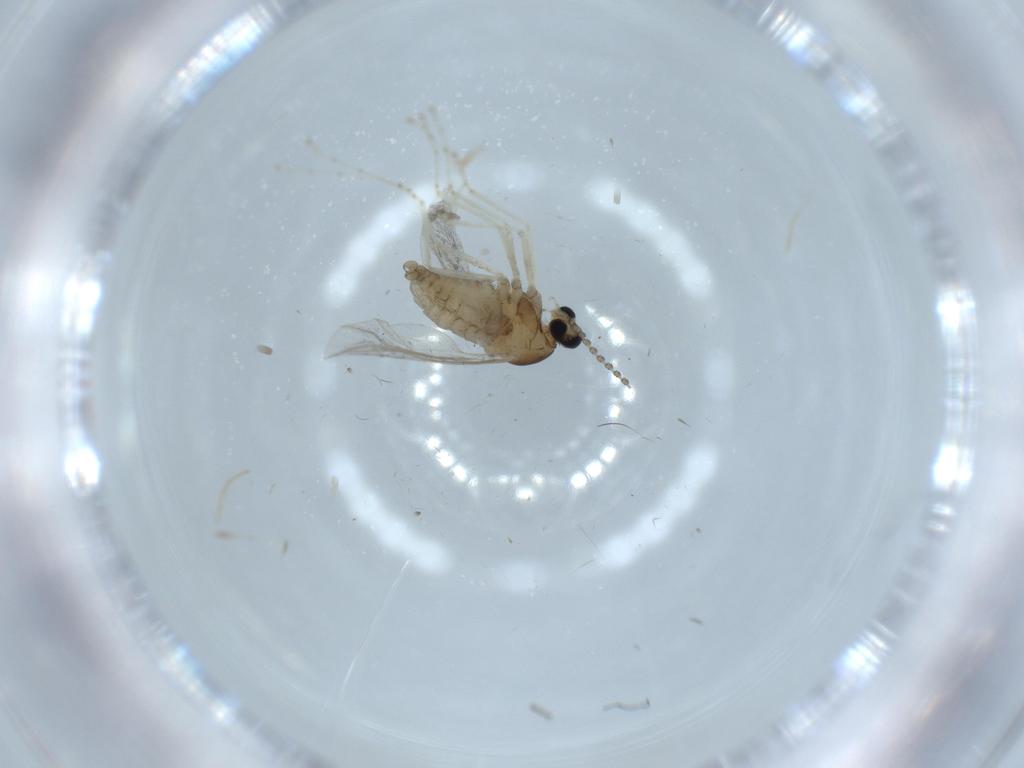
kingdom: Animalia
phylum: Arthropoda
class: Insecta
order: Diptera
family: Cecidomyiidae
